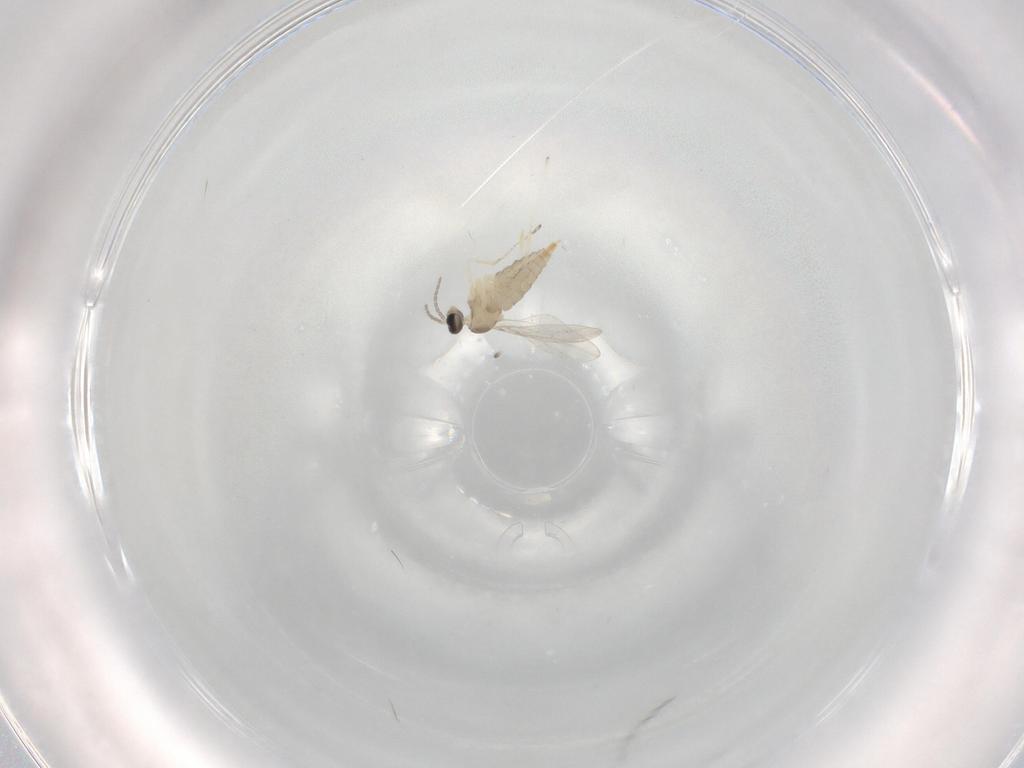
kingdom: Animalia
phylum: Arthropoda
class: Insecta
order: Diptera
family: Cecidomyiidae
